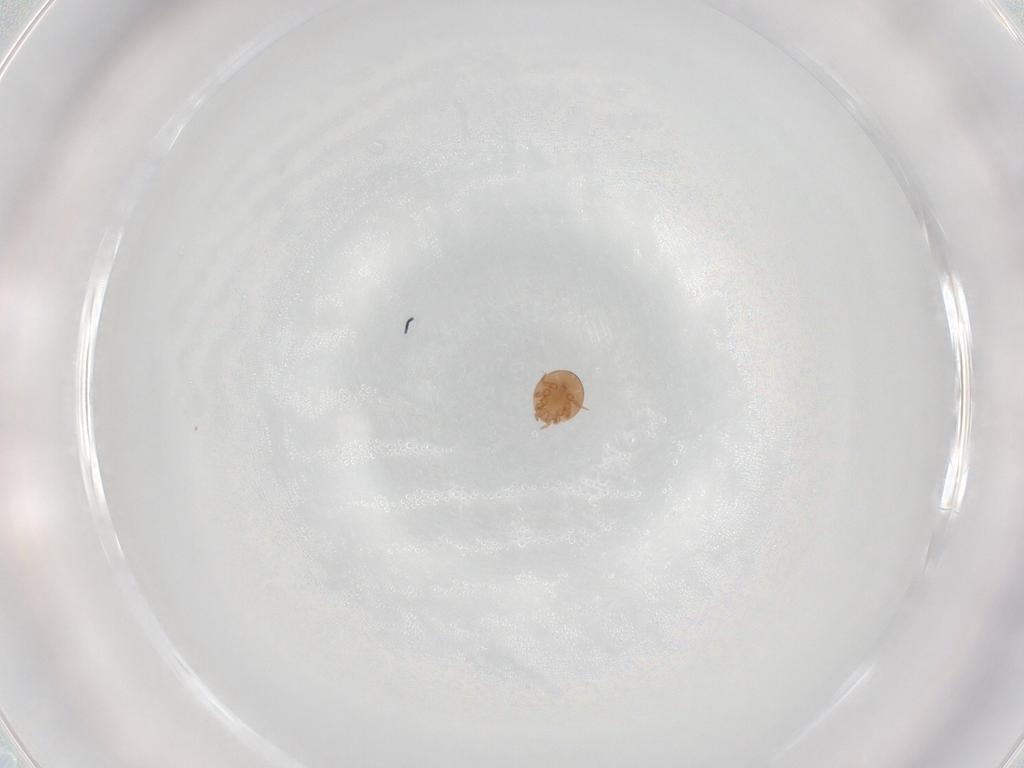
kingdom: Animalia
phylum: Arthropoda
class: Arachnida
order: Mesostigmata
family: Trematuridae
